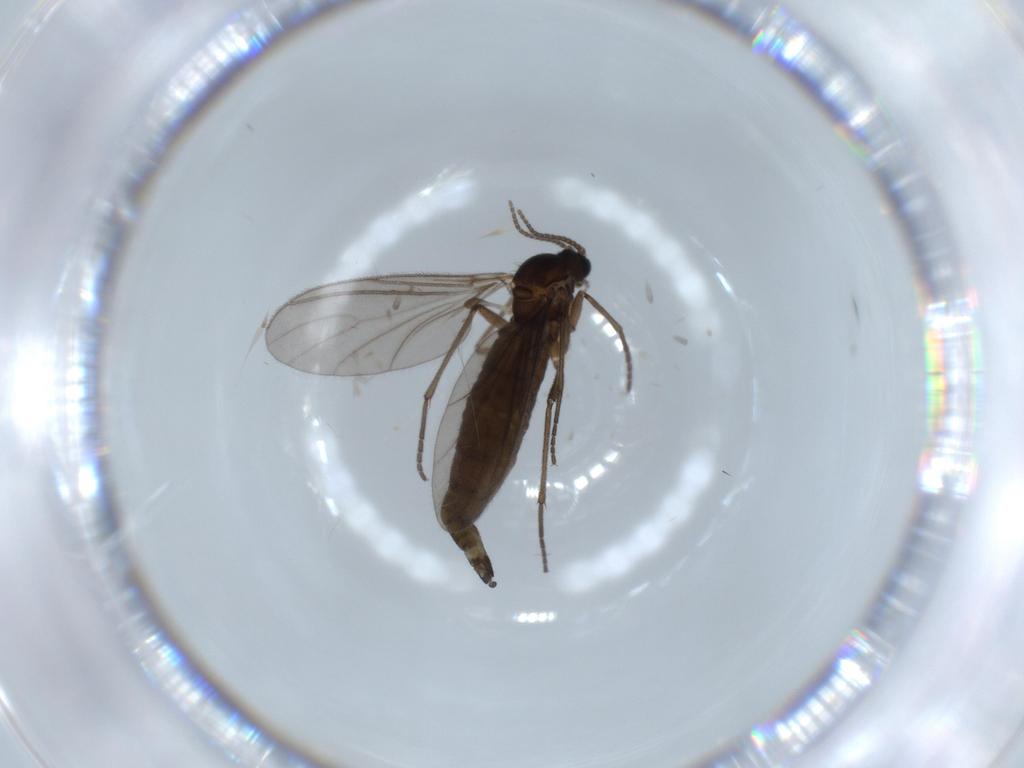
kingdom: Animalia
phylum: Arthropoda
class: Insecta
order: Diptera
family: Sciaridae
